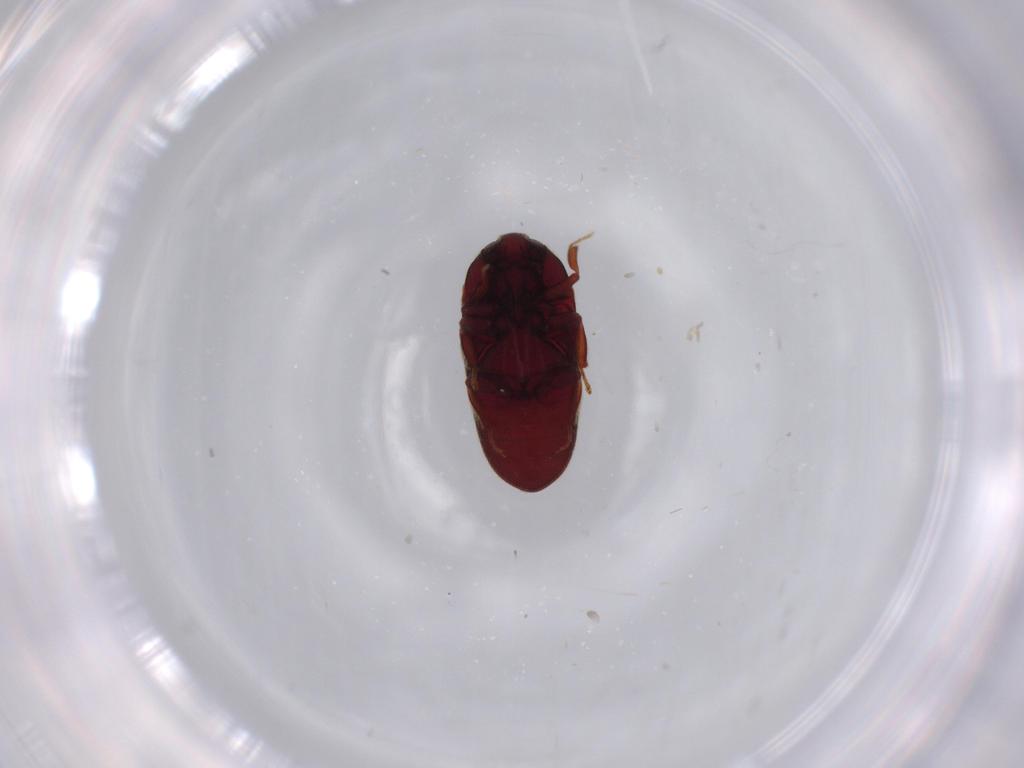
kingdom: Animalia
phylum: Arthropoda
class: Insecta
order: Coleoptera
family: Throscidae
